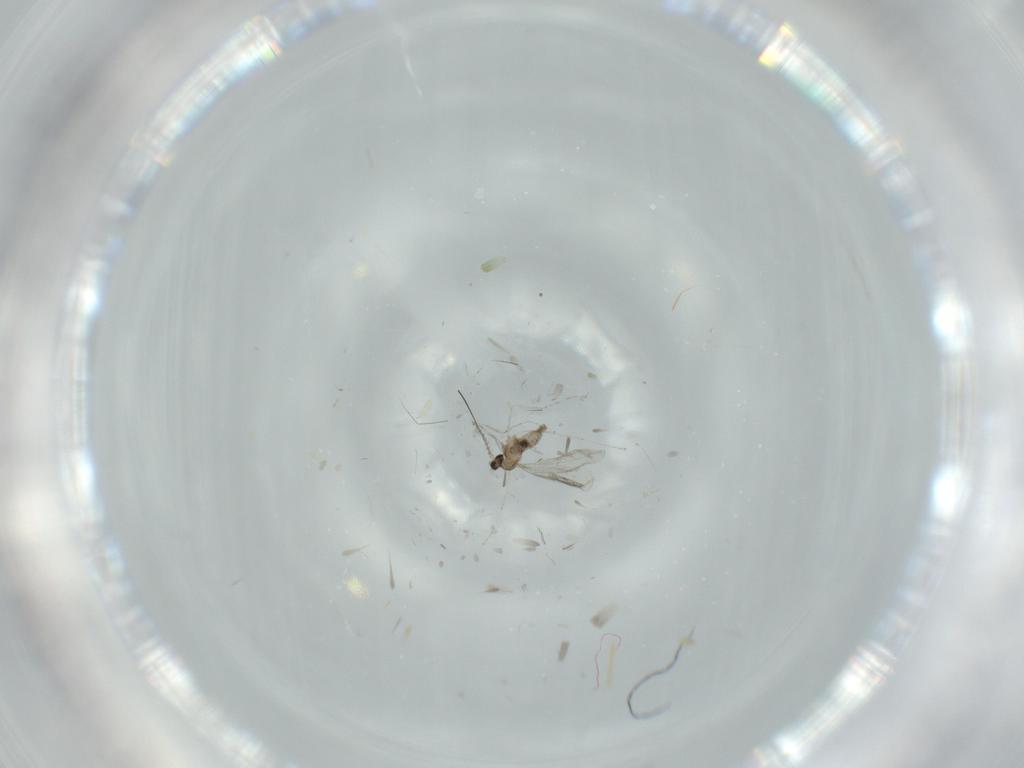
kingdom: Animalia
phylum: Arthropoda
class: Insecta
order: Diptera
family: Cecidomyiidae
